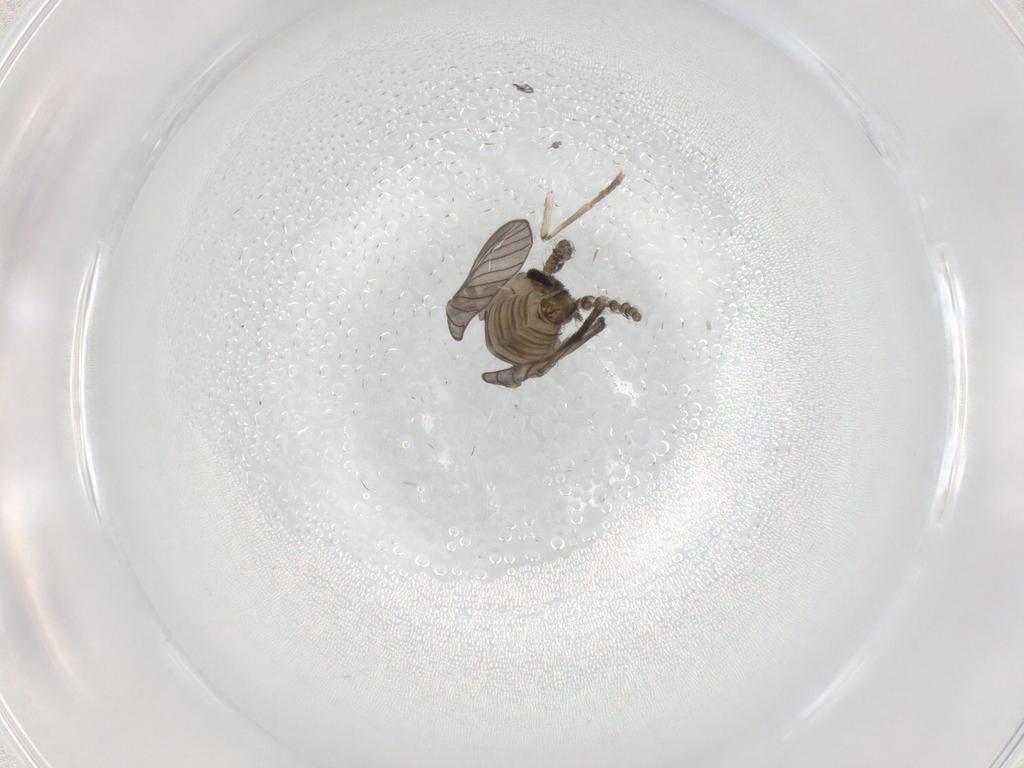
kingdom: Animalia
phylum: Arthropoda
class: Insecta
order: Diptera
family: Psychodidae
